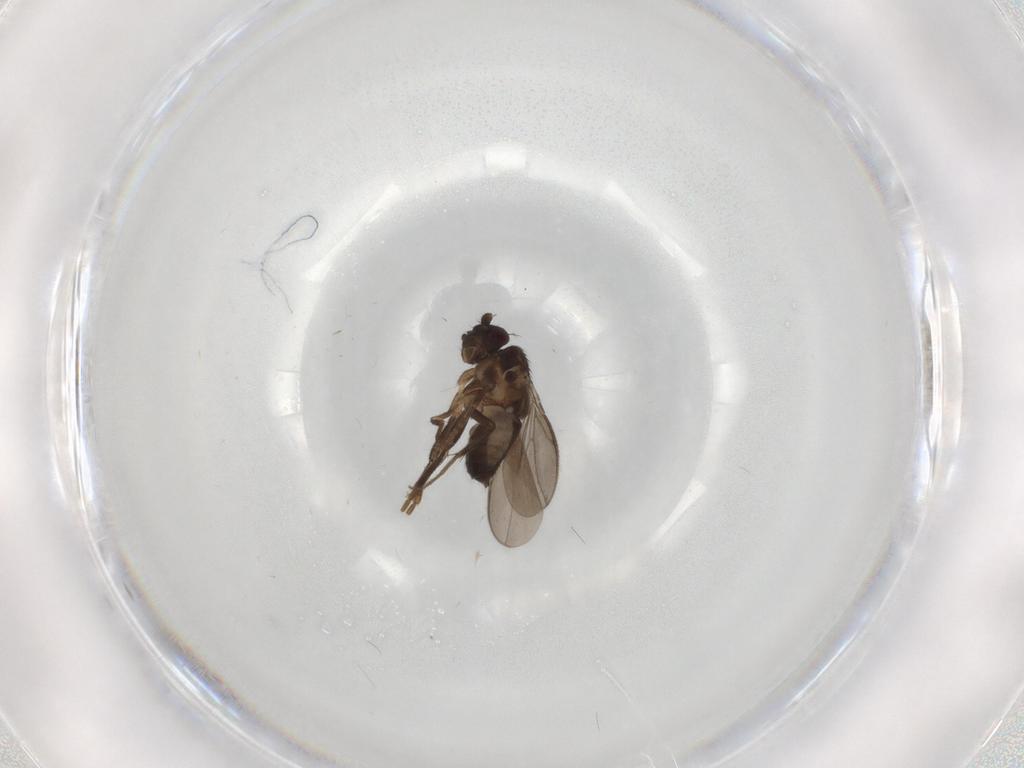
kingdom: Animalia
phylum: Arthropoda
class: Insecta
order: Diptera
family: Sphaeroceridae
